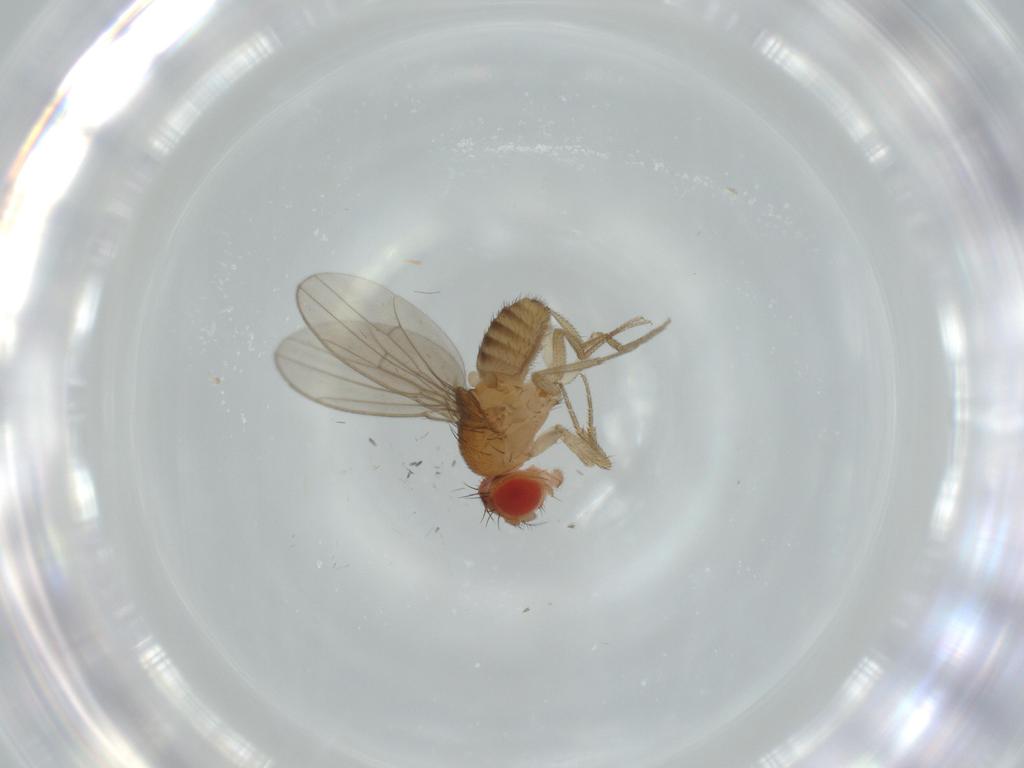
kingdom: Animalia
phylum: Arthropoda
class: Insecta
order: Diptera
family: Drosophilidae
